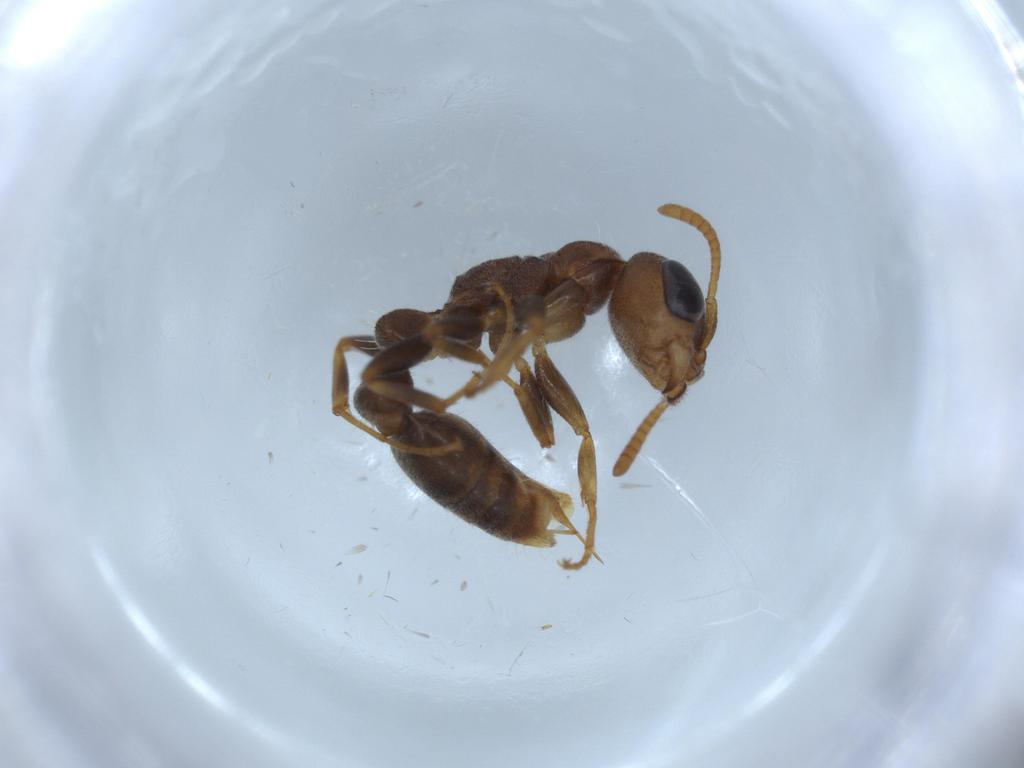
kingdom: Animalia
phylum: Arthropoda
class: Insecta
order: Hymenoptera
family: Formicidae
